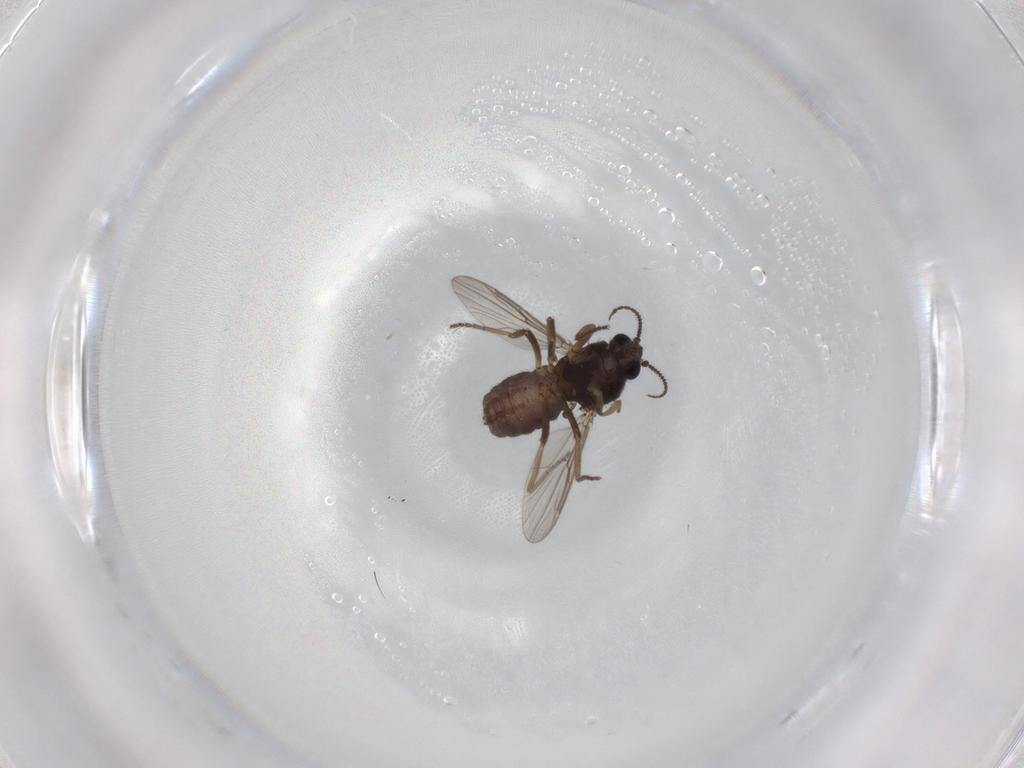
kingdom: Animalia
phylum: Arthropoda
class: Insecta
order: Diptera
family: Ceratopogonidae
